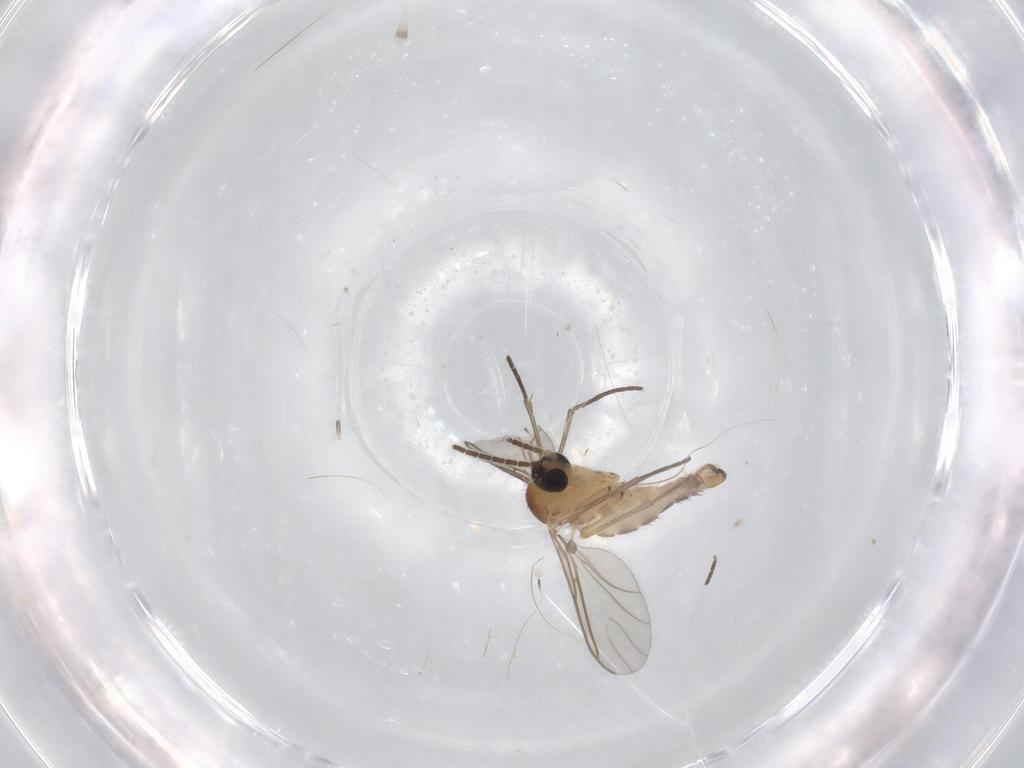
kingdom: Animalia
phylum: Arthropoda
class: Insecta
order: Diptera
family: Sciaridae
